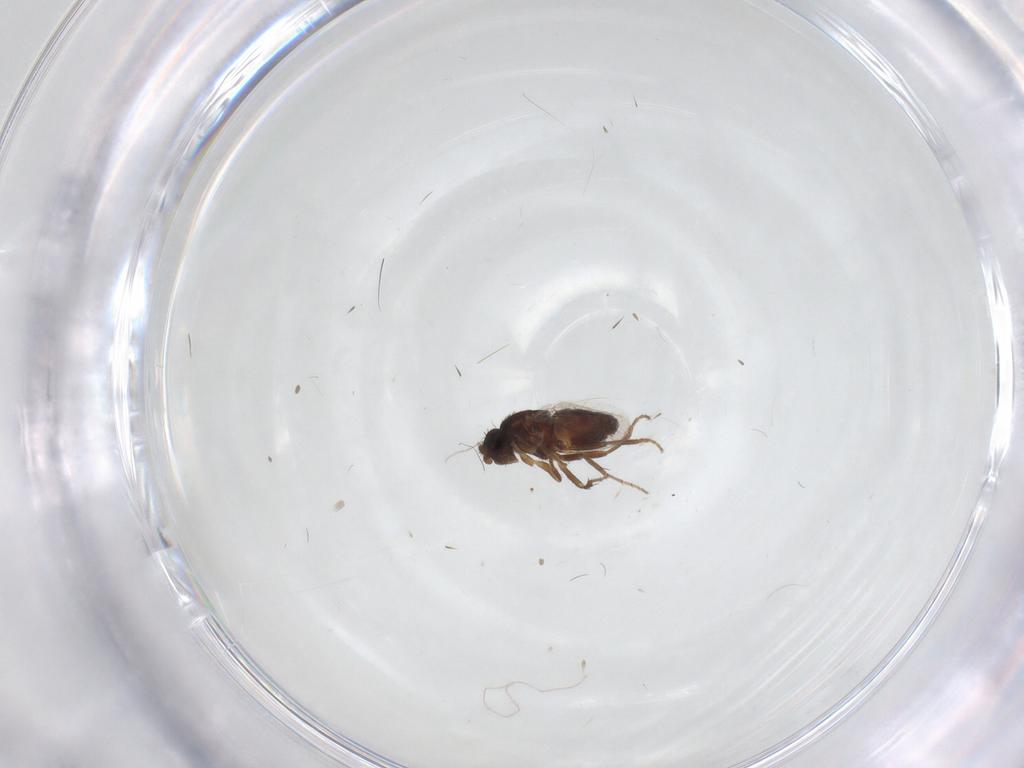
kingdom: Animalia
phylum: Arthropoda
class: Insecta
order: Diptera
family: Sphaeroceridae
